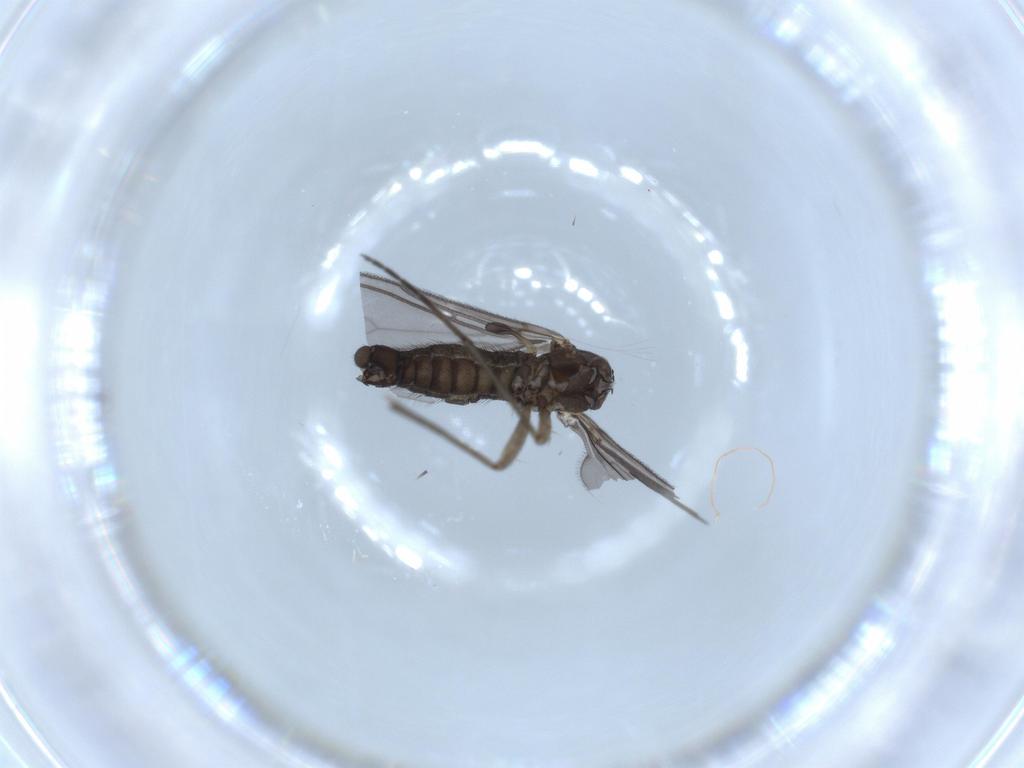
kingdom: Animalia
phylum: Arthropoda
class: Insecta
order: Diptera
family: Sciaridae
